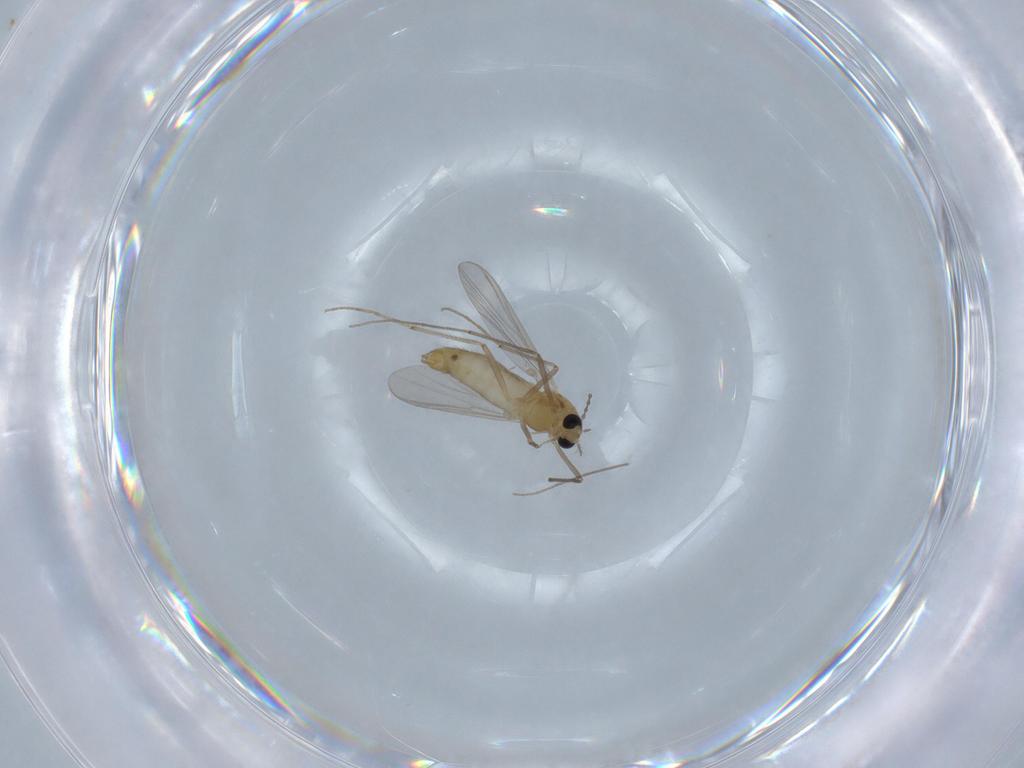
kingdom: Animalia
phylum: Arthropoda
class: Insecta
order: Diptera
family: Chironomidae
